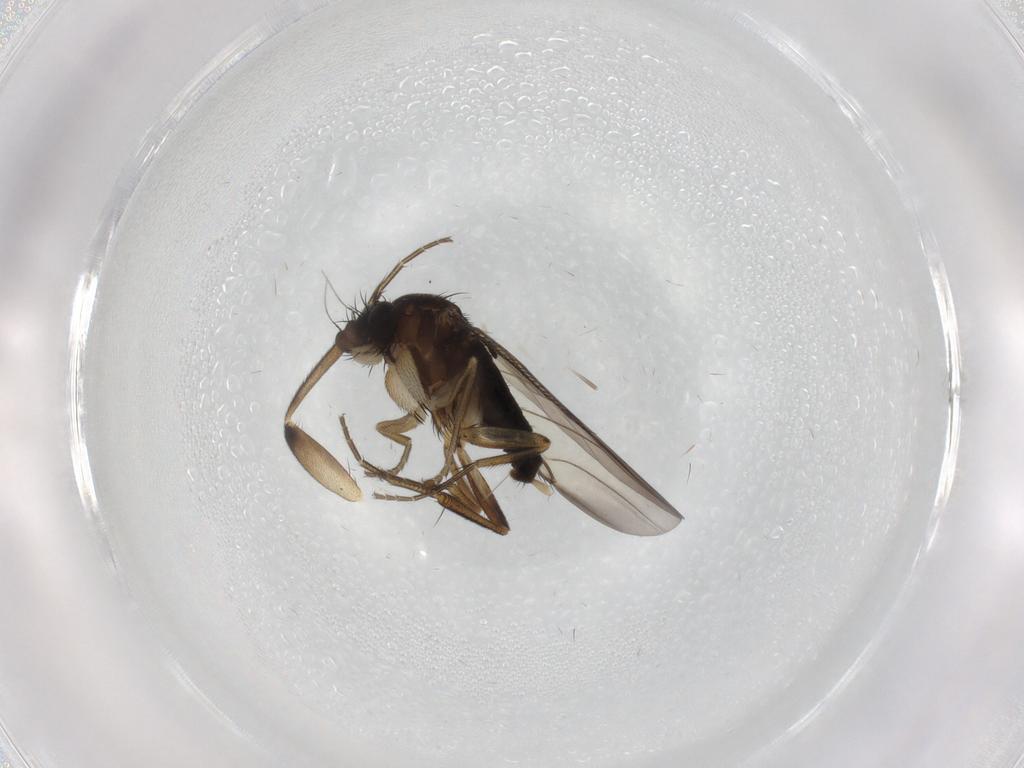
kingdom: Animalia
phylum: Arthropoda
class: Insecta
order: Diptera
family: Phoridae
